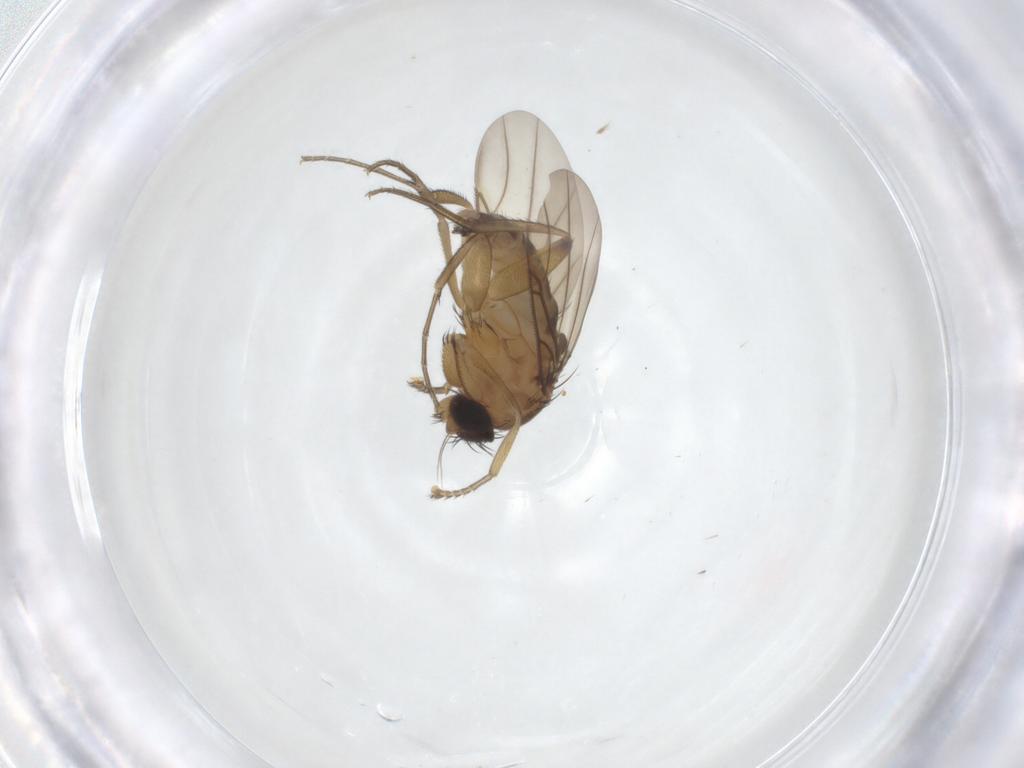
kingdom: Animalia
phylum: Arthropoda
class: Insecta
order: Diptera
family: Phoridae
